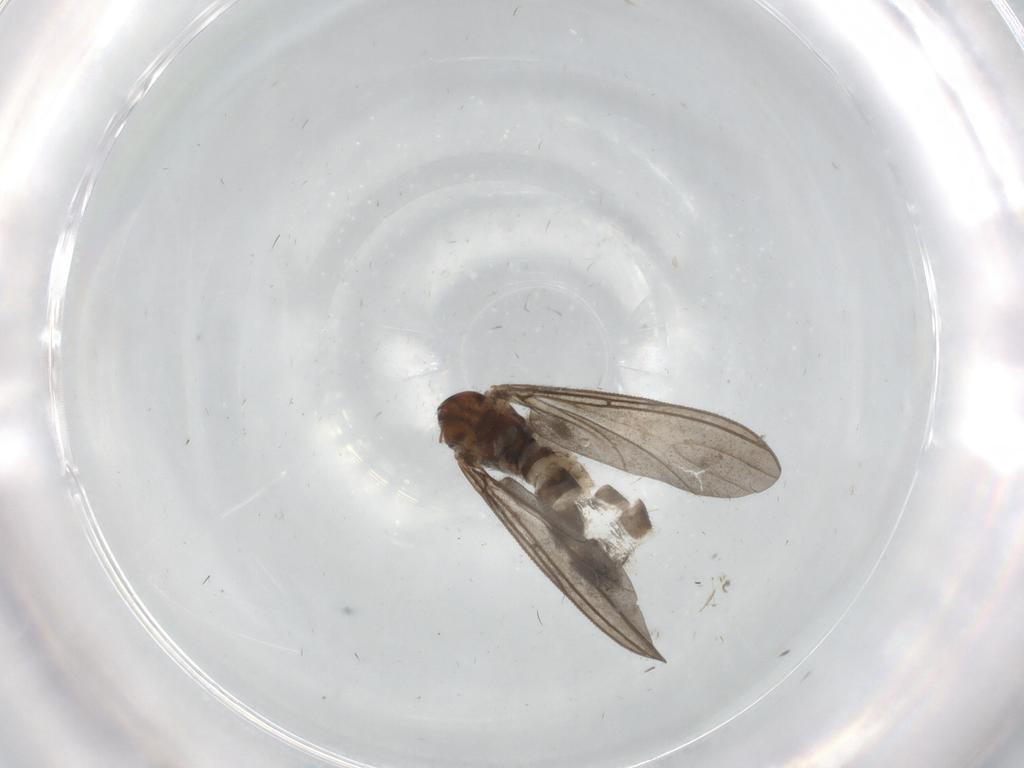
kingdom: Animalia
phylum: Arthropoda
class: Insecta
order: Diptera
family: Sciaridae
